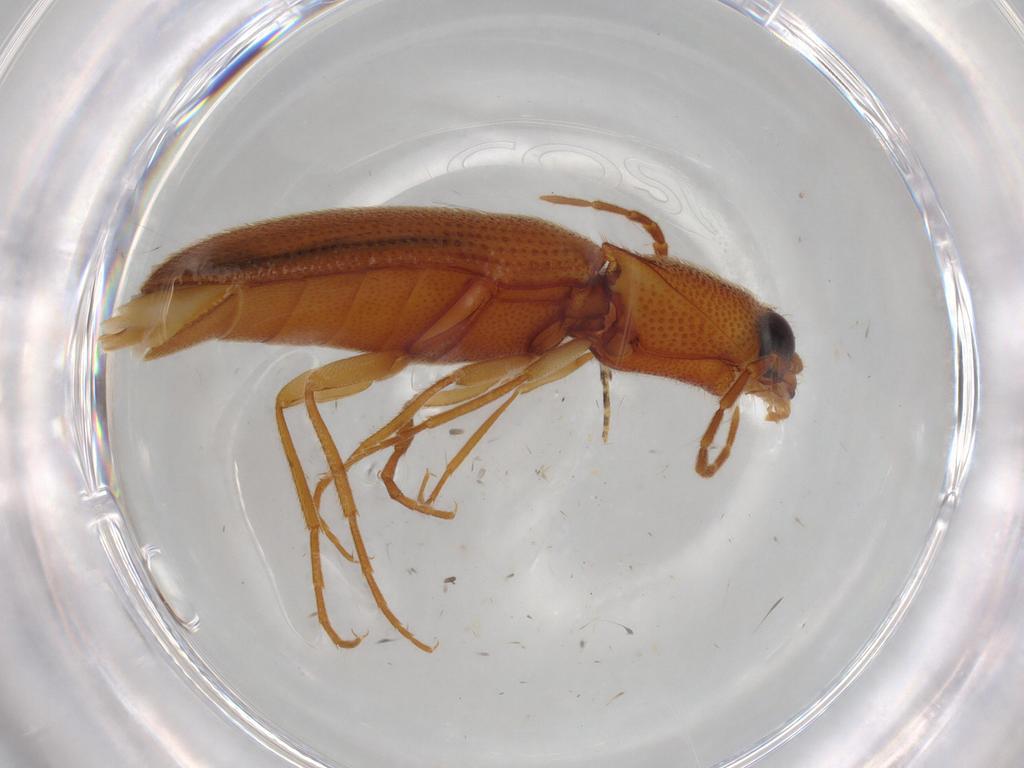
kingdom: Animalia
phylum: Arthropoda
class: Insecta
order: Coleoptera
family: Elateridae
